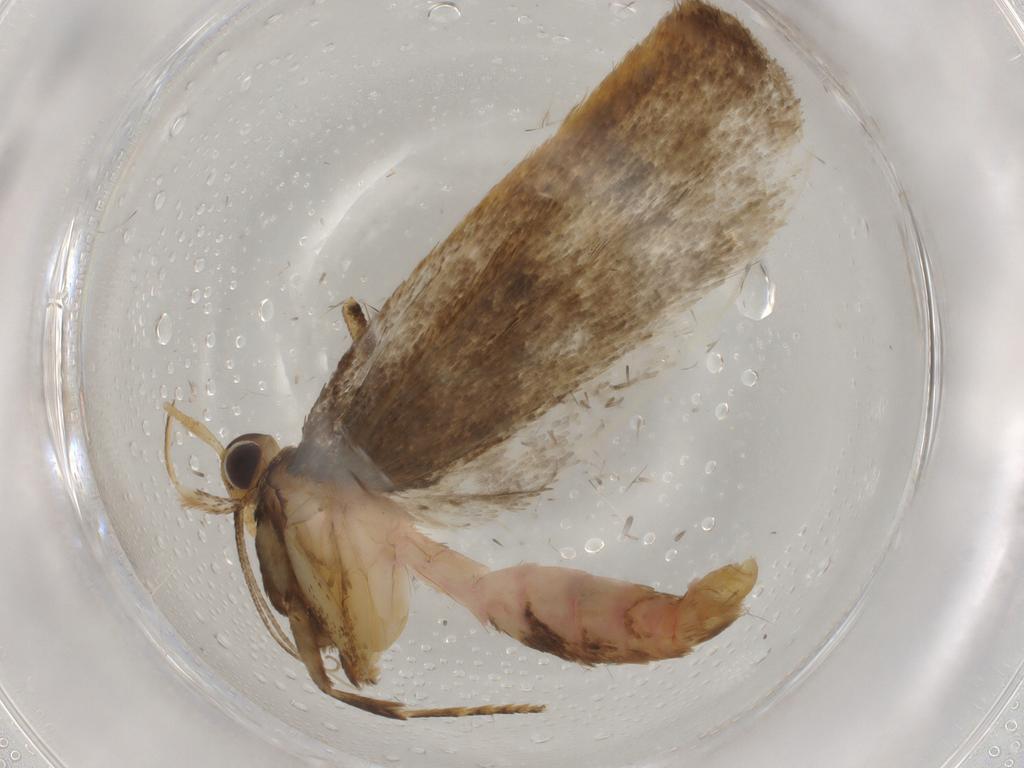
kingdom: Animalia
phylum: Arthropoda
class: Insecta
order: Lepidoptera
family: Lecithoceridae
